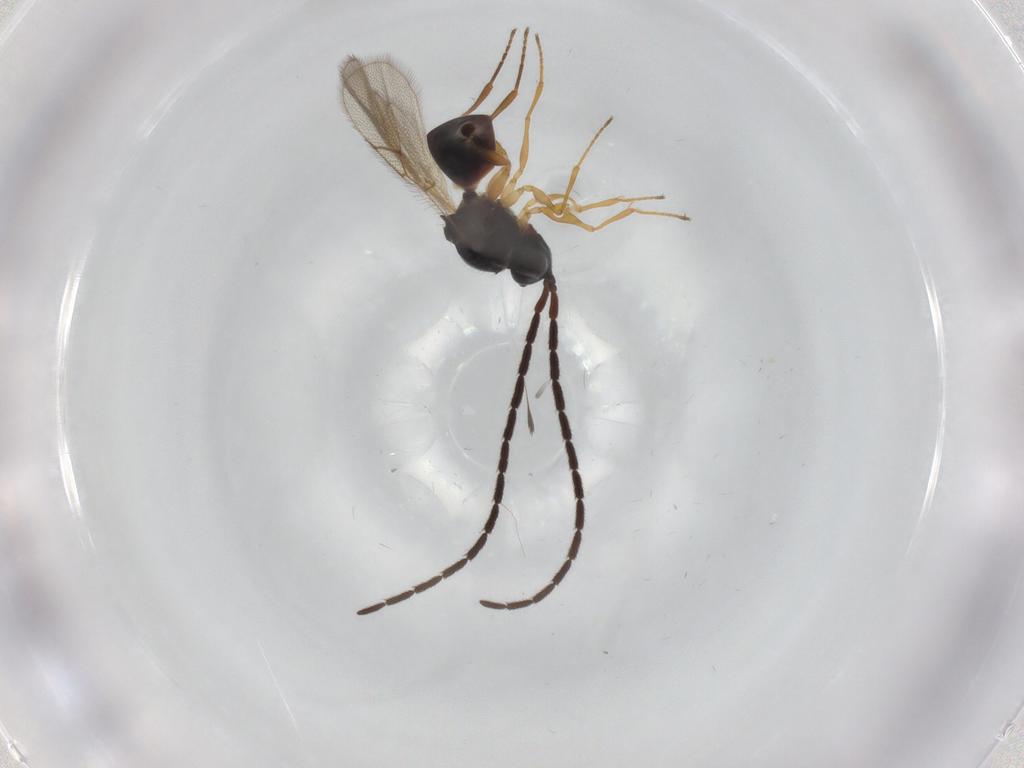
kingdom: Animalia
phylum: Arthropoda
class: Insecta
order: Hymenoptera
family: Figitidae
